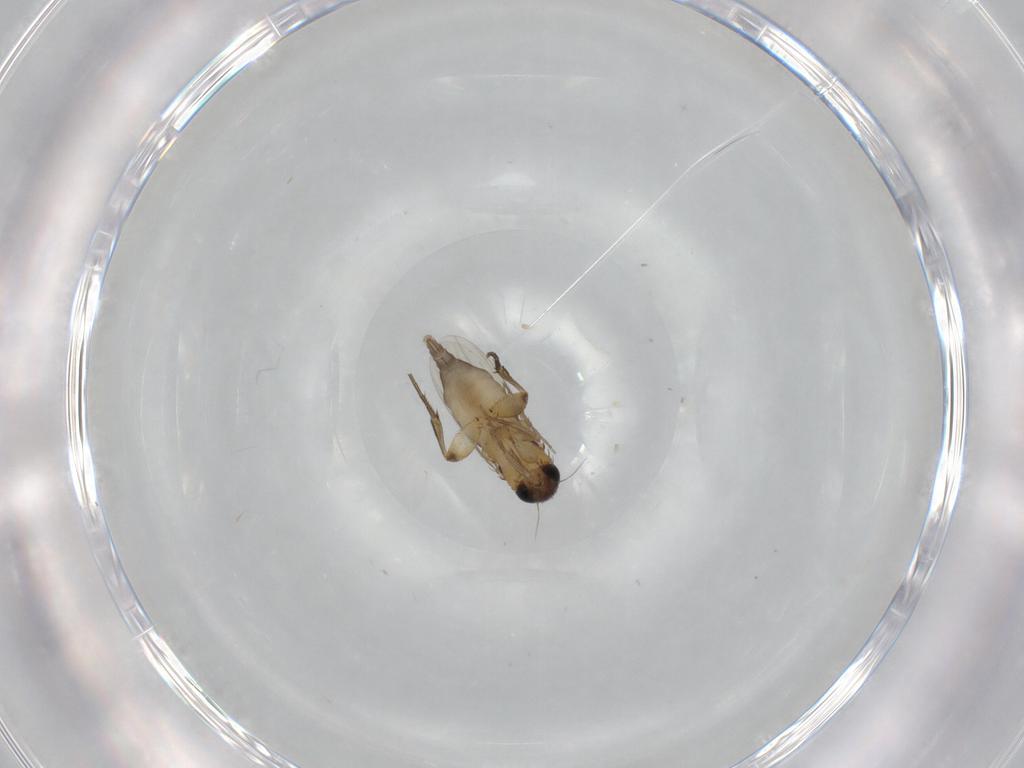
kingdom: Animalia
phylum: Arthropoda
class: Insecta
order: Diptera
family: Phoridae
